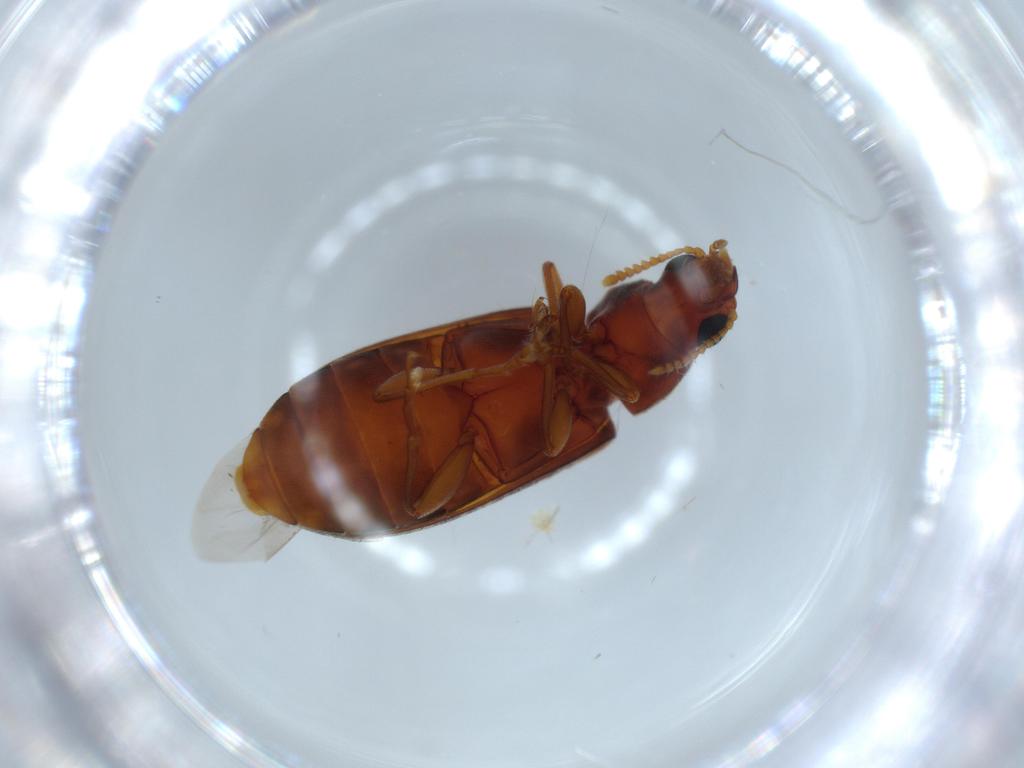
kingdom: Animalia
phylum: Arthropoda
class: Insecta
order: Coleoptera
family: Mycteridae
